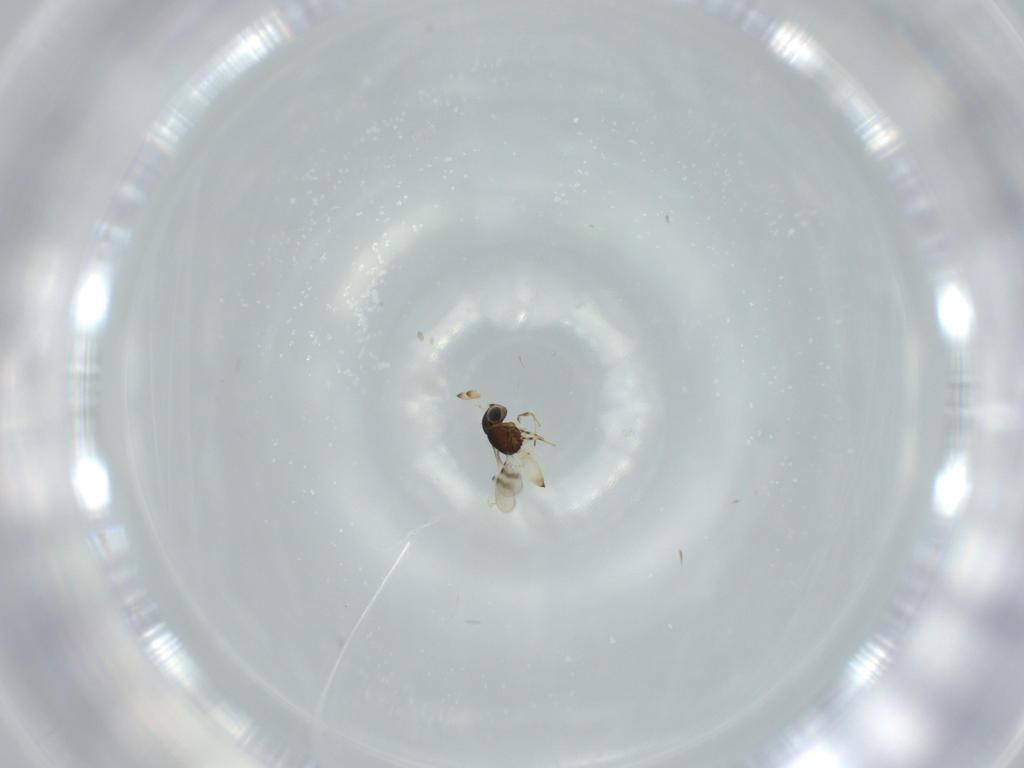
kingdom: Animalia
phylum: Arthropoda
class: Insecta
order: Hymenoptera
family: Scelionidae
